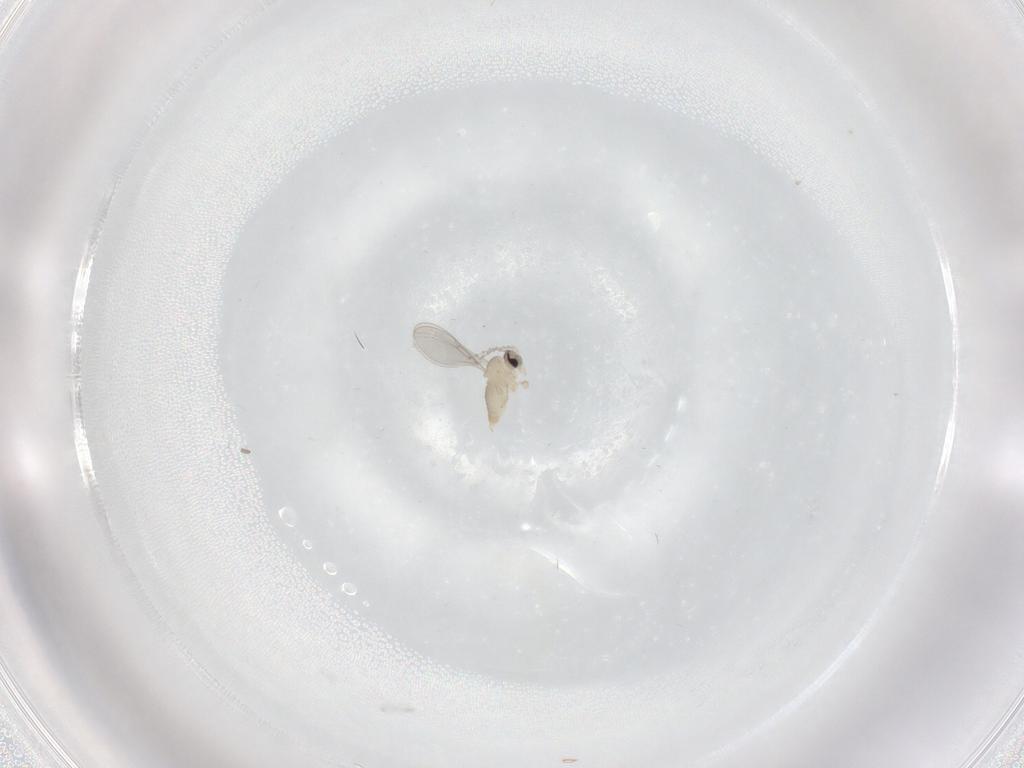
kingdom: Animalia
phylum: Arthropoda
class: Insecta
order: Diptera
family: Cecidomyiidae
